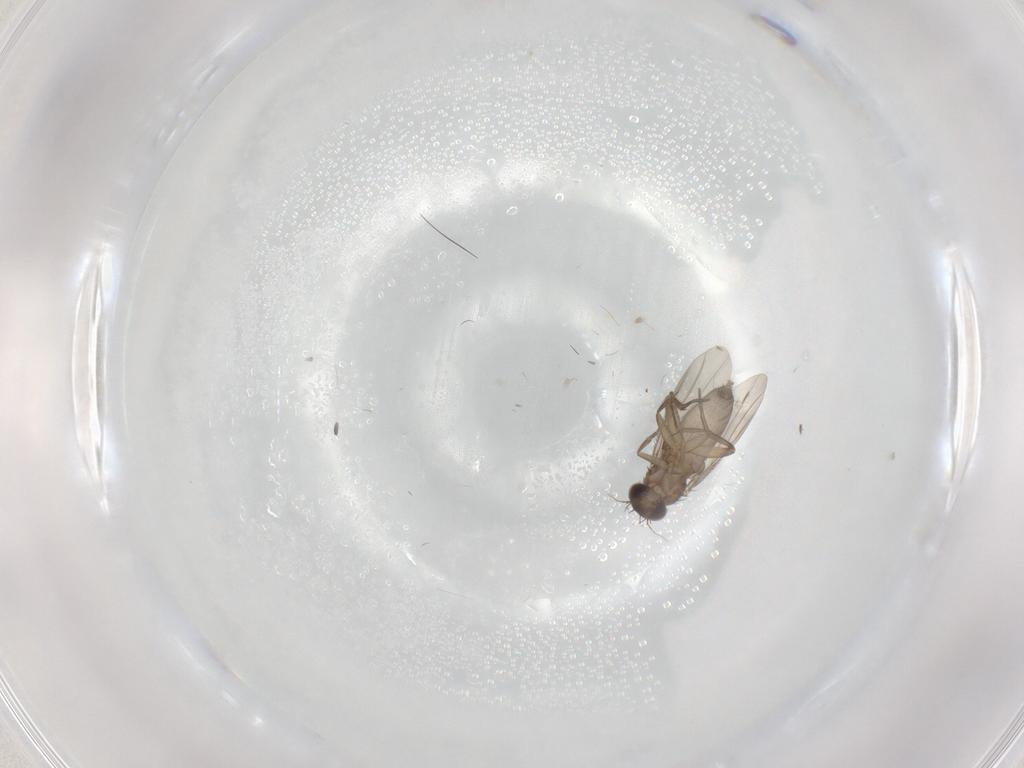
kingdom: Animalia
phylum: Arthropoda
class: Insecta
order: Diptera
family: Phoridae
